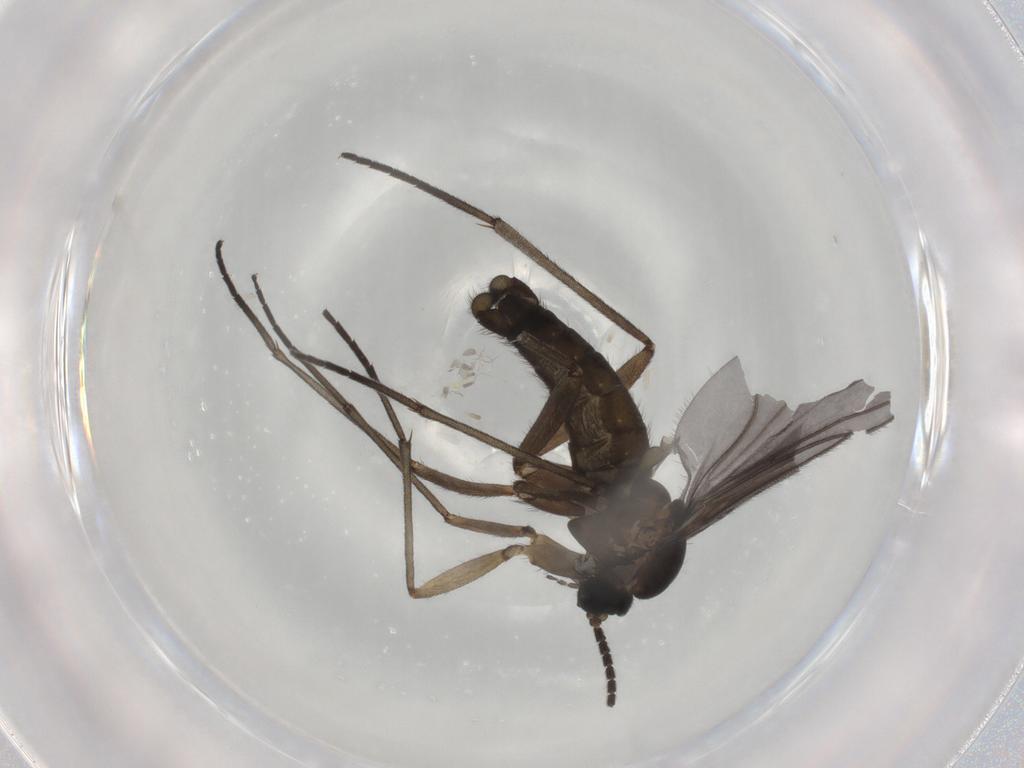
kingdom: Animalia
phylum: Arthropoda
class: Insecta
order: Diptera
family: Sciaridae
